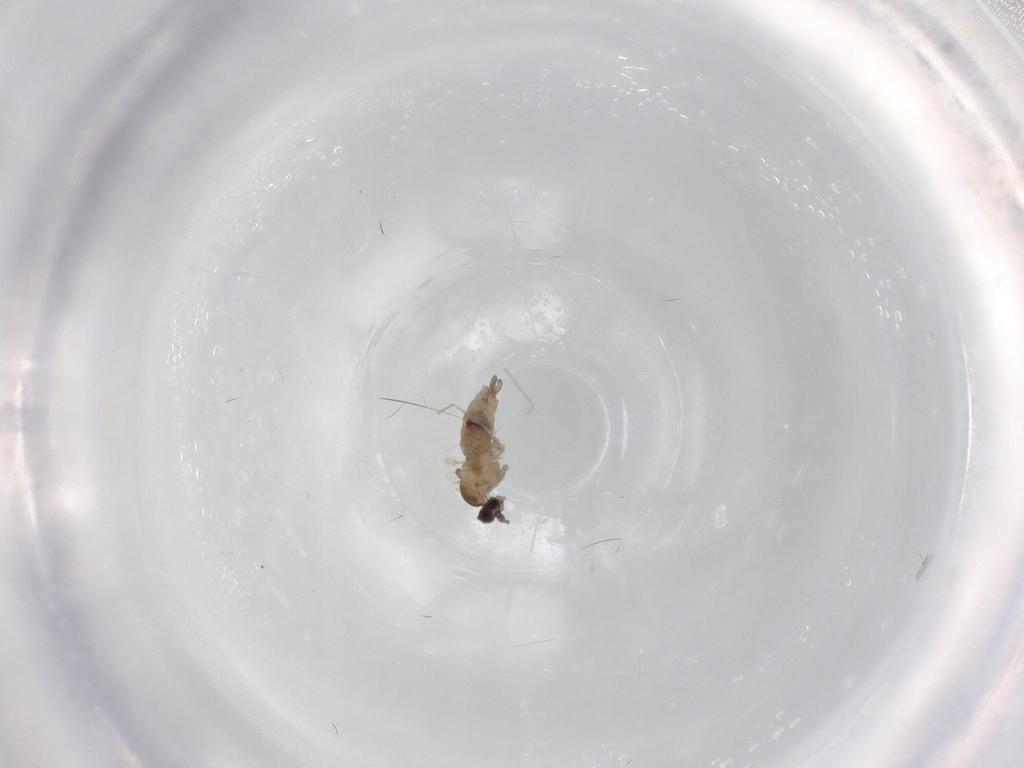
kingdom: Animalia
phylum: Arthropoda
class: Insecta
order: Diptera
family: Cecidomyiidae
